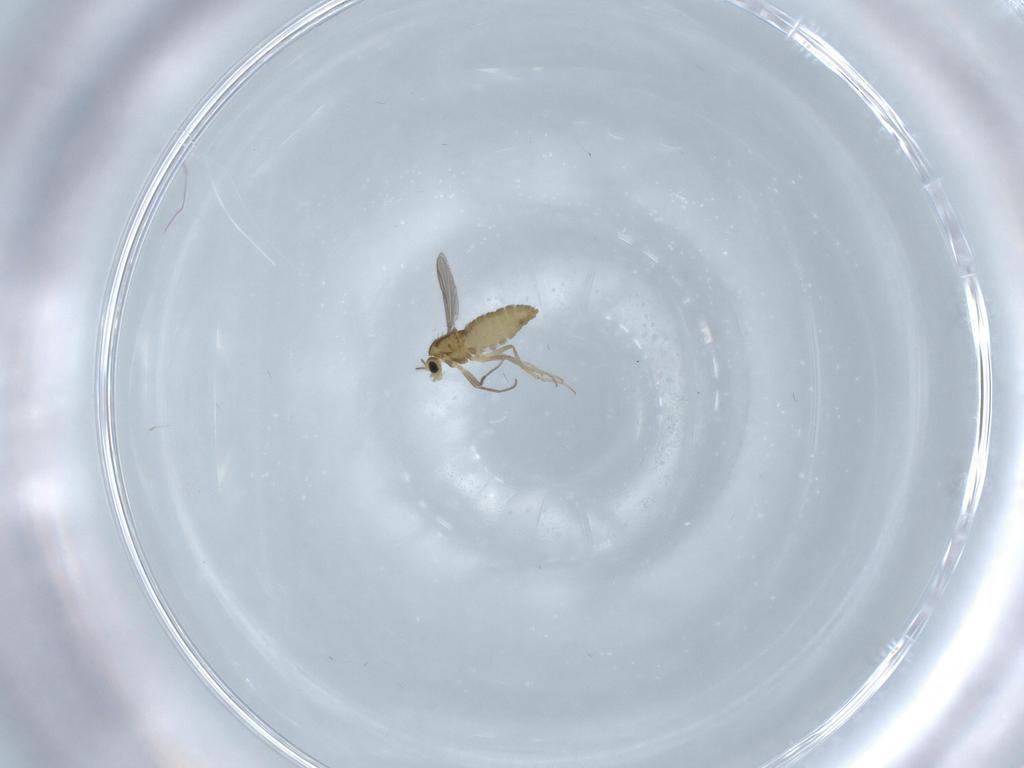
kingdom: Animalia
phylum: Arthropoda
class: Insecta
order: Diptera
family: Chironomidae
